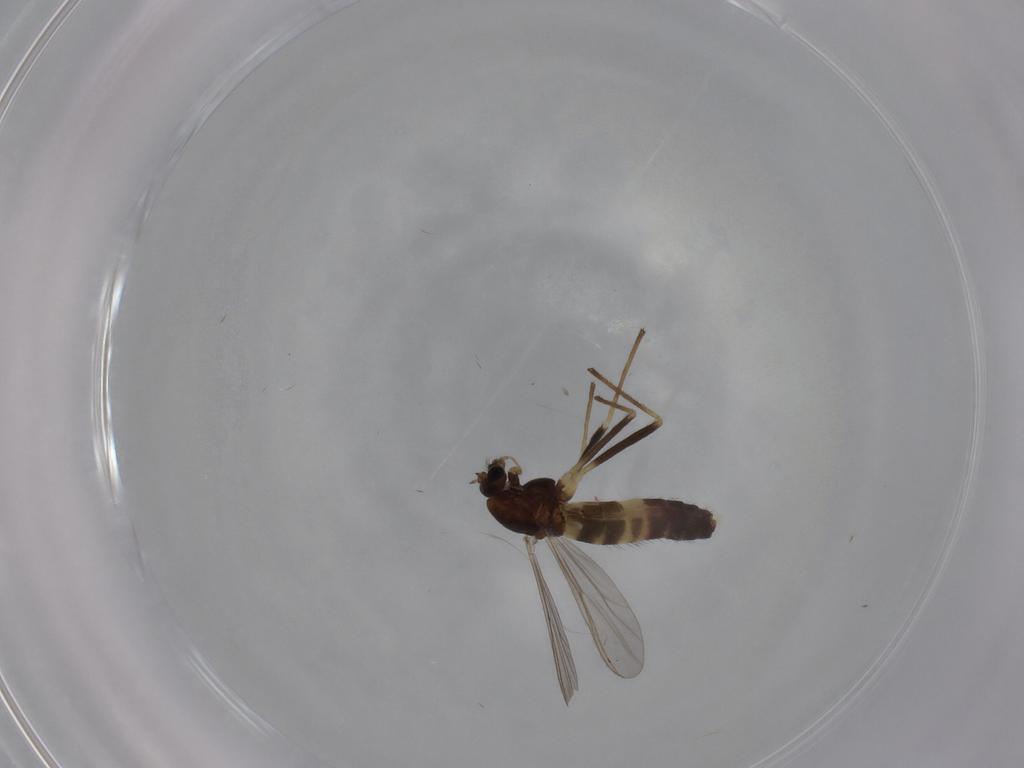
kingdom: Animalia
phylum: Arthropoda
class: Insecta
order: Diptera
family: Chironomidae
